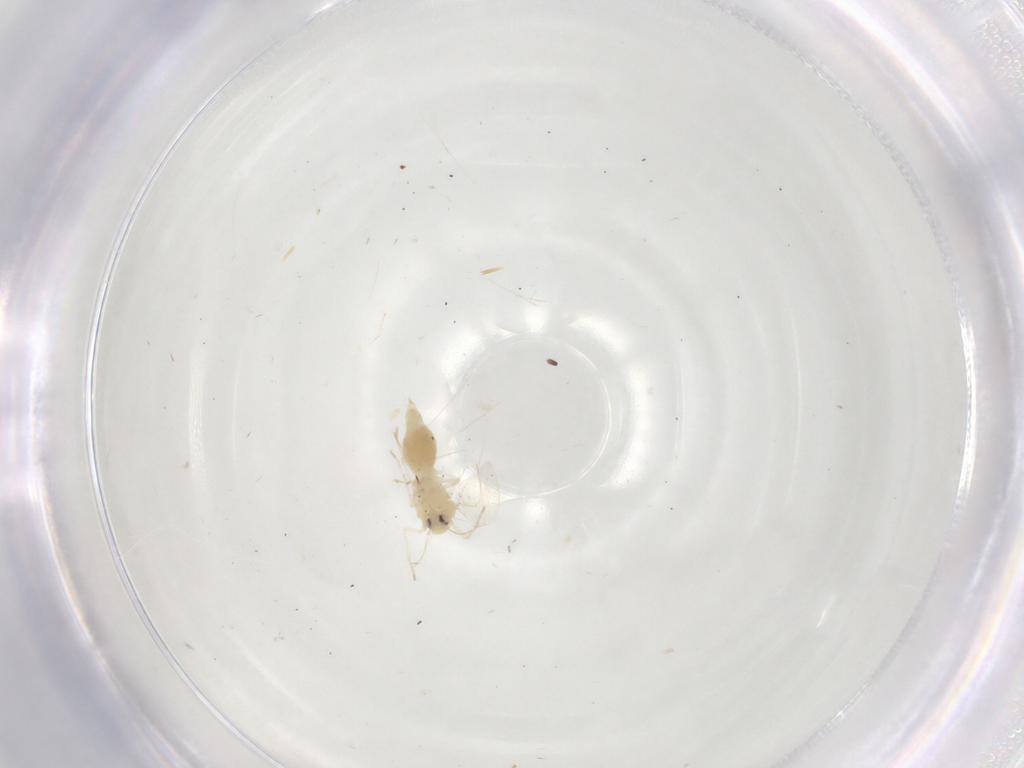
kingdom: Animalia
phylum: Arthropoda
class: Insecta
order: Hemiptera
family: Aleyrodidae
